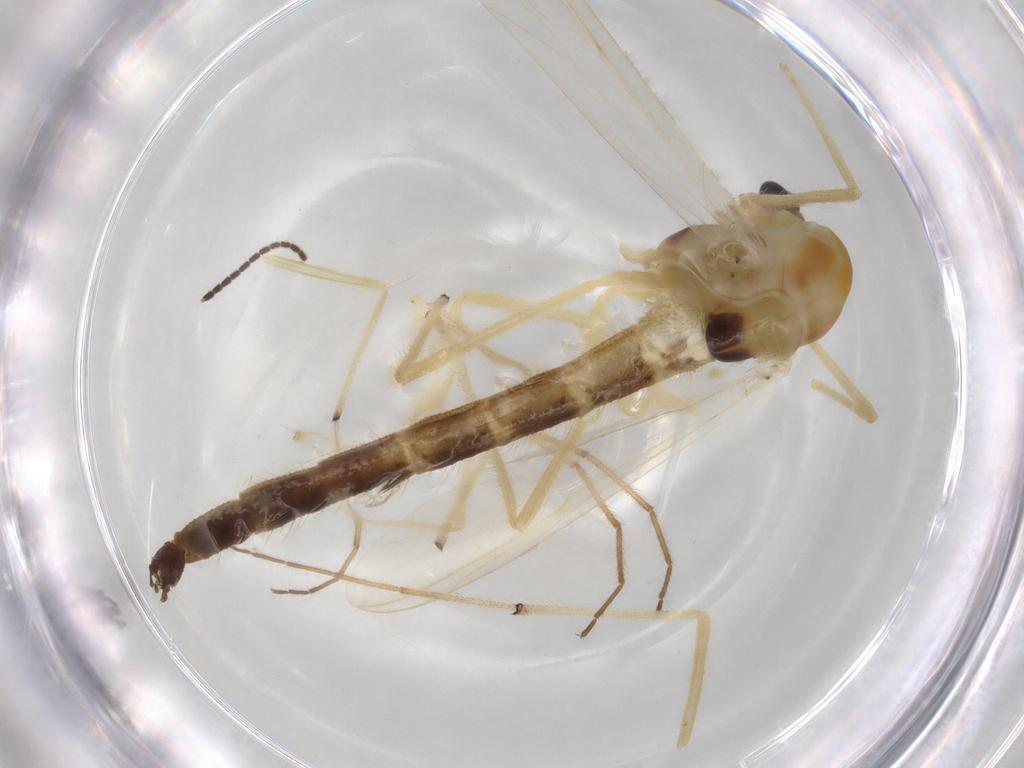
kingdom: Animalia
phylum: Arthropoda
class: Insecta
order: Diptera
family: Chironomidae
